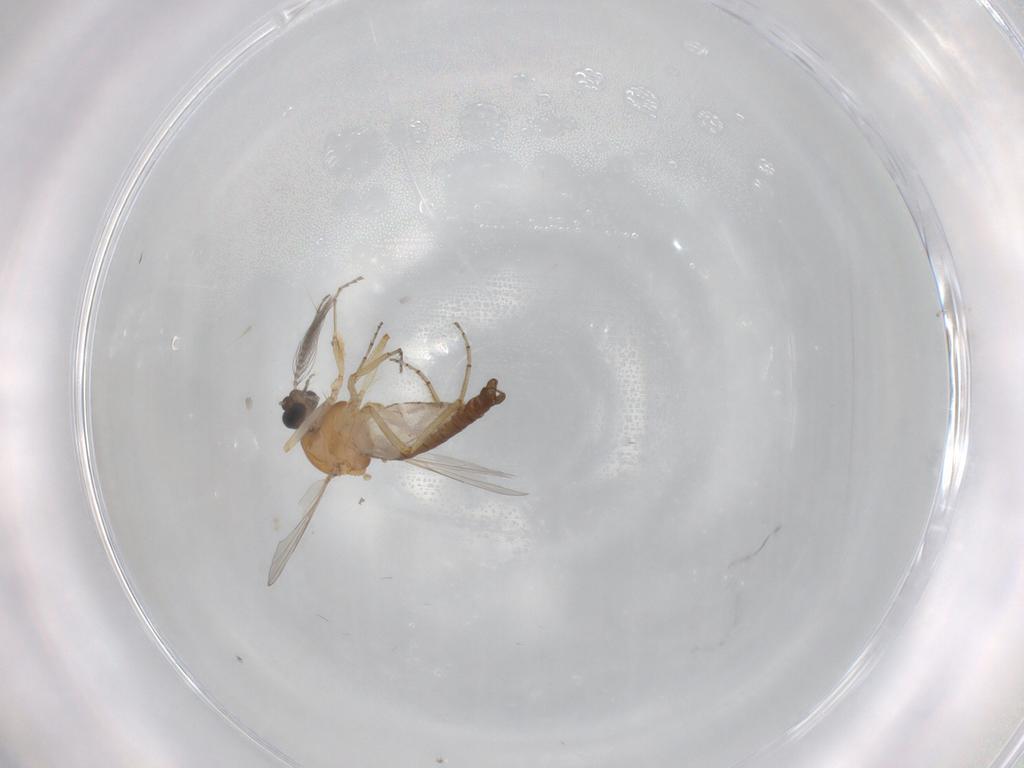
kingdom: Animalia
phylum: Arthropoda
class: Insecta
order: Diptera
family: Ceratopogonidae
